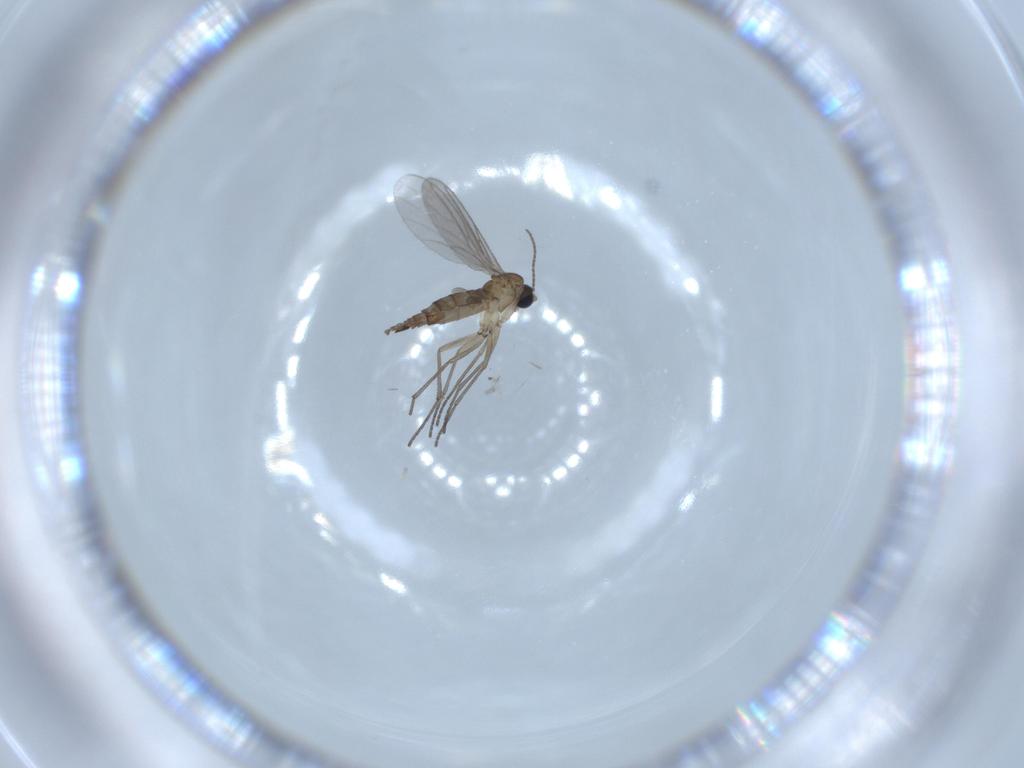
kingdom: Animalia
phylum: Arthropoda
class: Insecta
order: Diptera
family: Sciaridae
